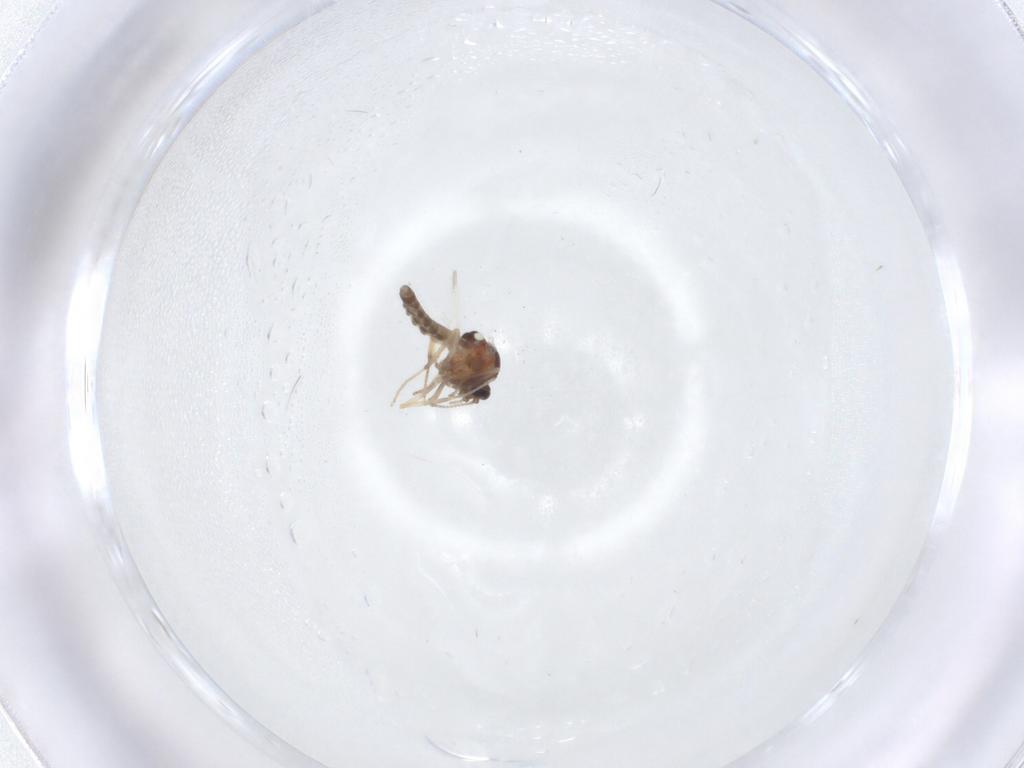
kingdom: Animalia
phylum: Arthropoda
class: Insecta
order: Diptera
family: Ceratopogonidae
